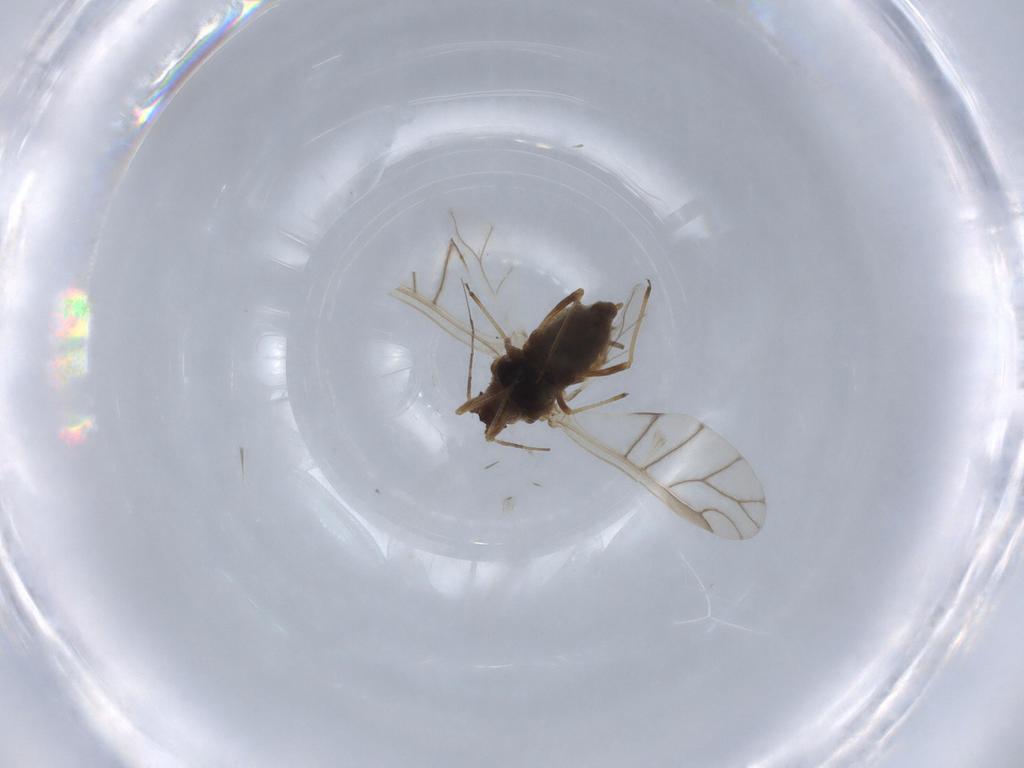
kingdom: Animalia
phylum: Arthropoda
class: Insecta
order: Hemiptera
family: Aphididae
